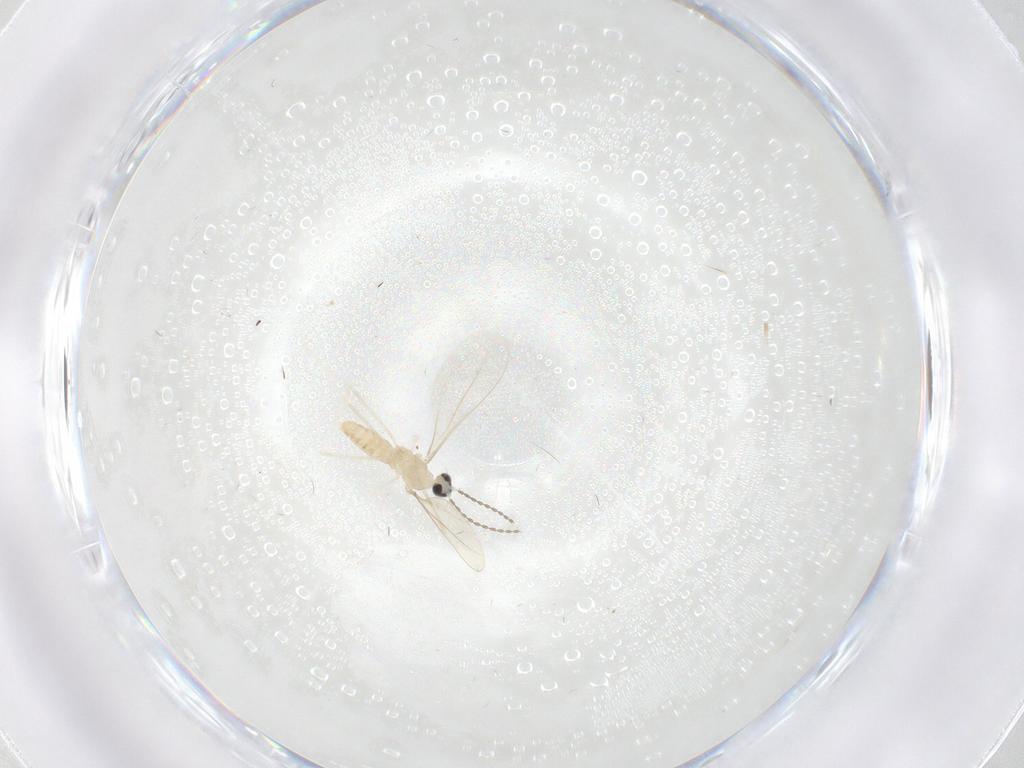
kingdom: Animalia
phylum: Arthropoda
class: Insecta
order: Diptera
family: Cecidomyiidae
